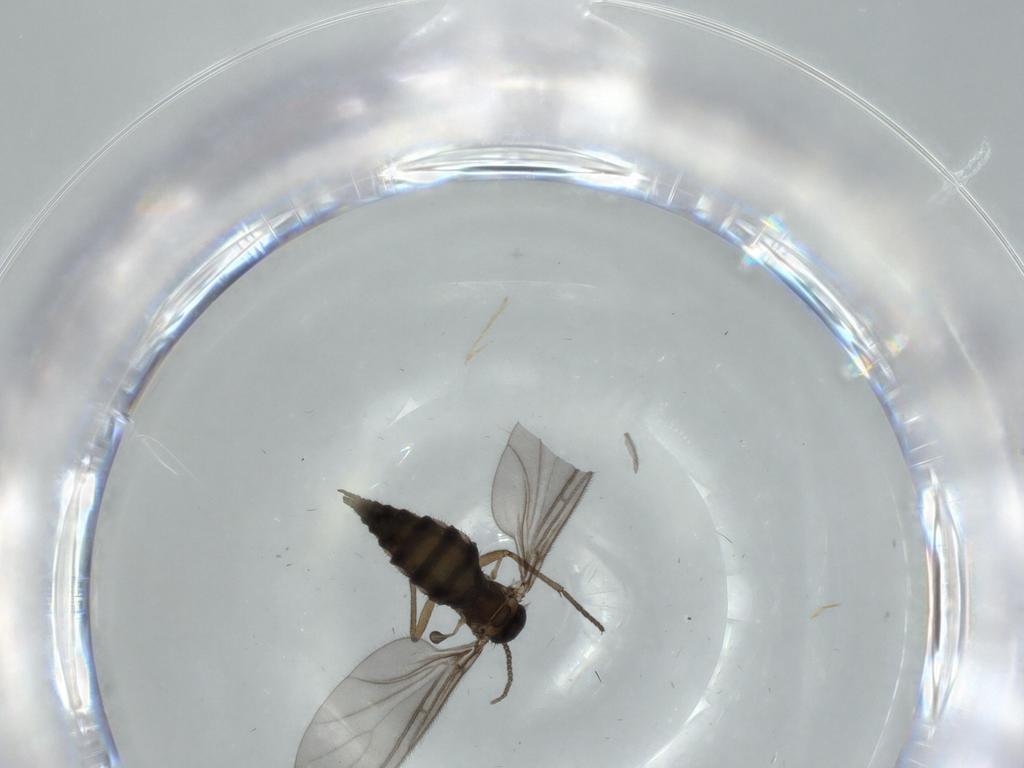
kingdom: Animalia
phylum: Arthropoda
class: Insecta
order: Diptera
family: Sciaridae
